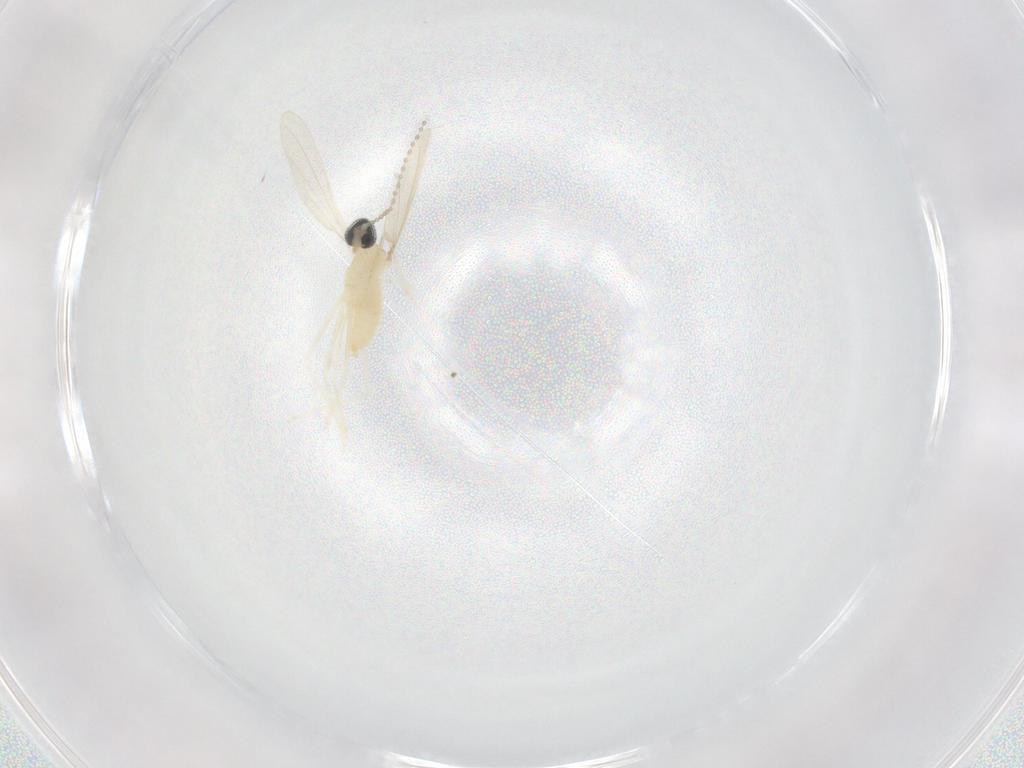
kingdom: Animalia
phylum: Arthropoda
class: Insecta
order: Diptera
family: Cecidomyiidae
